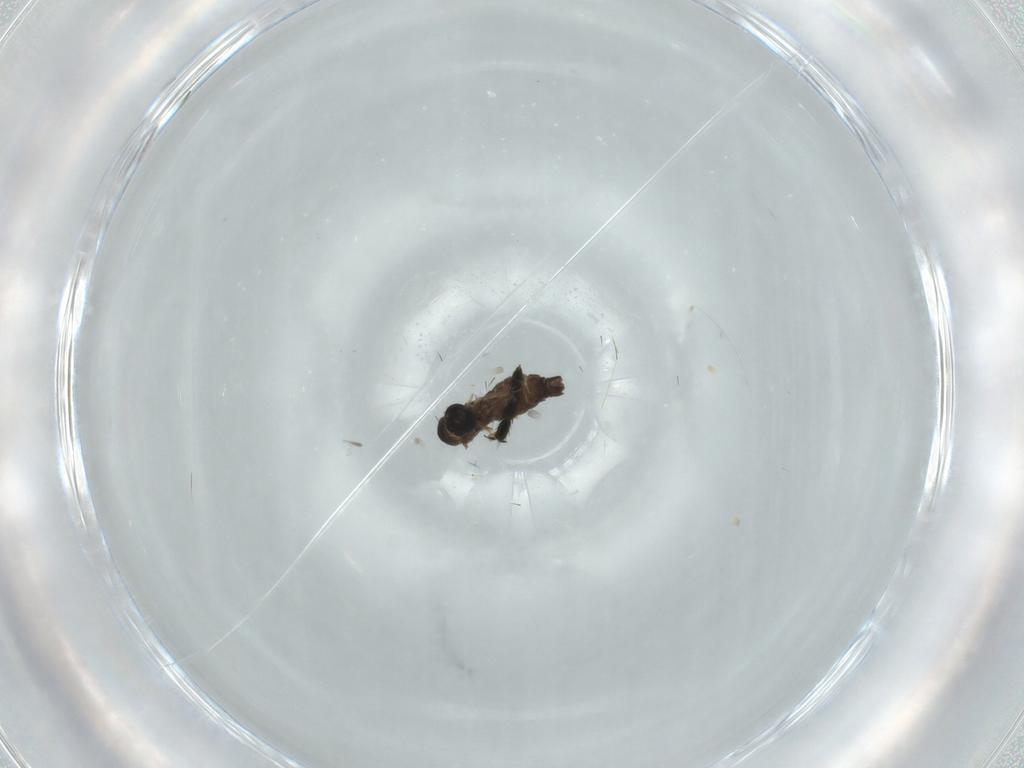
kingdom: Animalia
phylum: Arthropoda
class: Insecta
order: Diptera
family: Sciaridae
